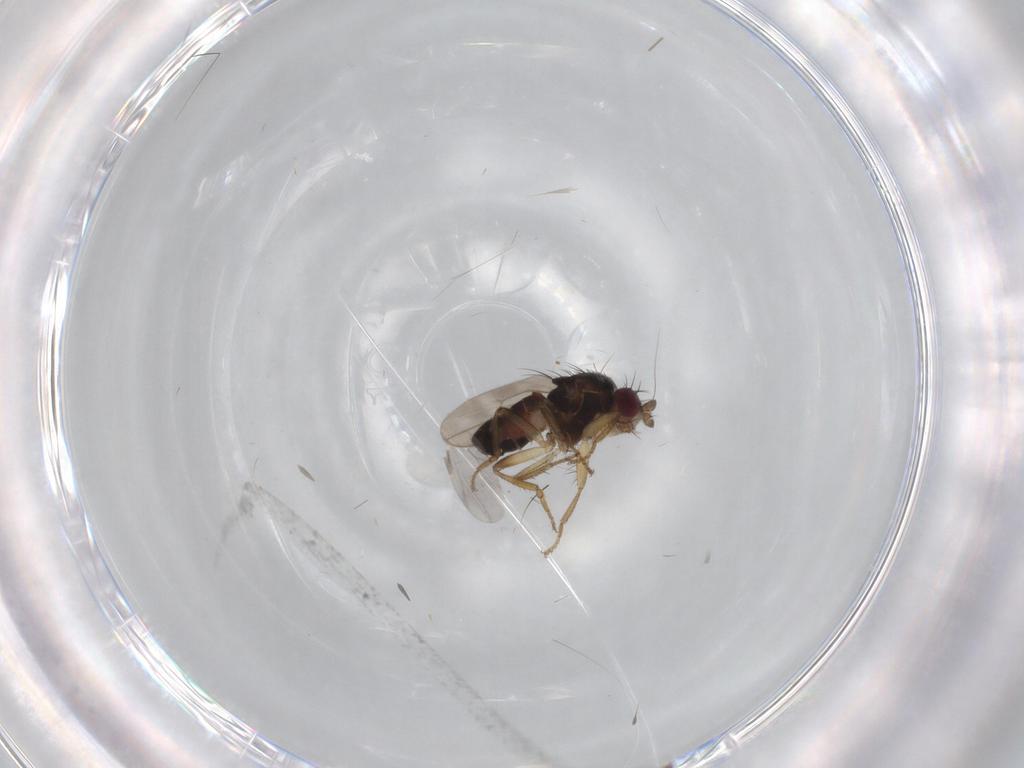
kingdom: Animalia
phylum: Arthropoda
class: Insecta
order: Diptera
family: Sphaeroceridae
